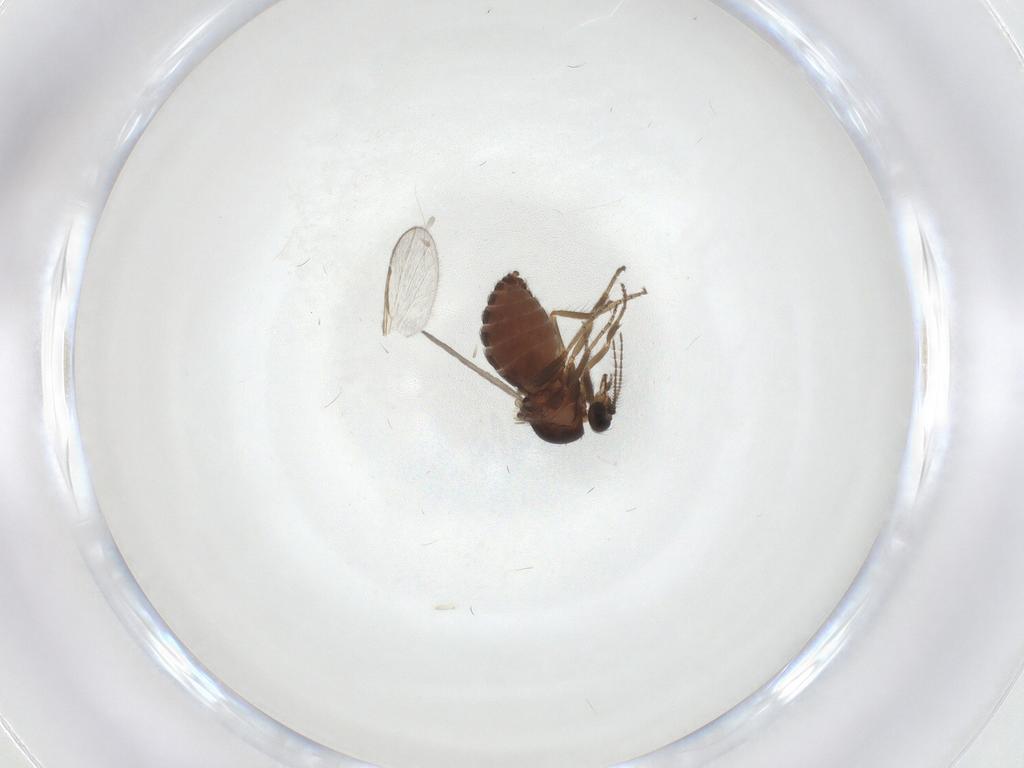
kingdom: Animalia
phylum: Arthropoda
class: Insecta
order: Diptera
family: Ceratopogonidae
